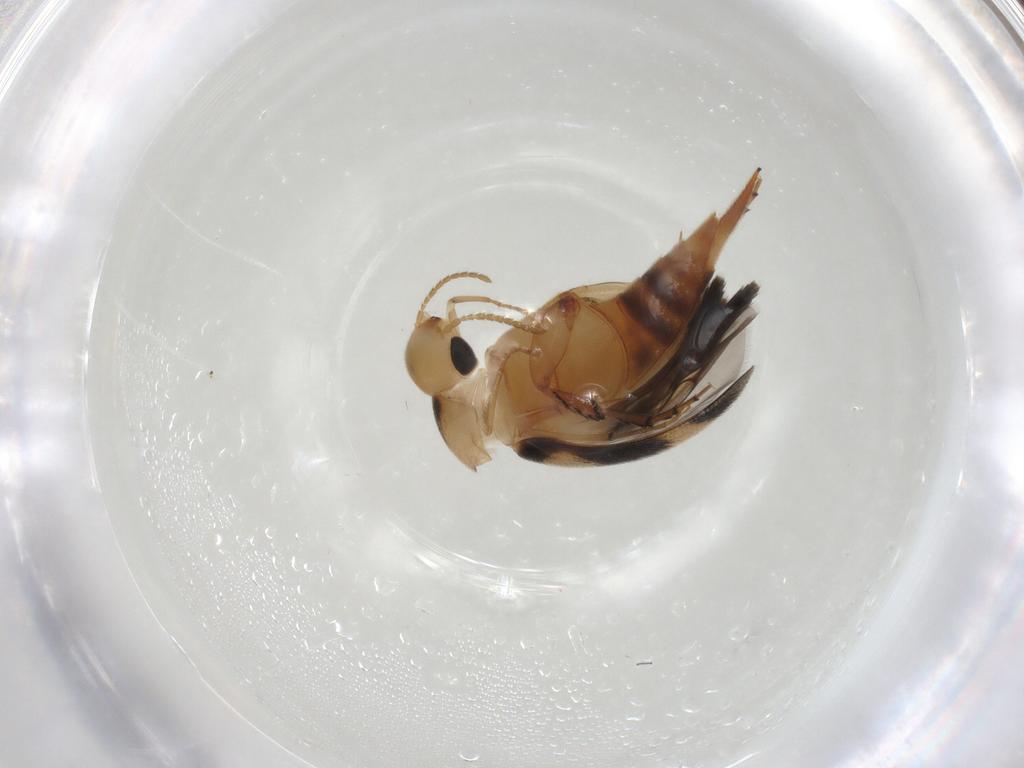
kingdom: Animalia
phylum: Arthropoda
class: Insecta
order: Coleoptera
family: Mordellidae
